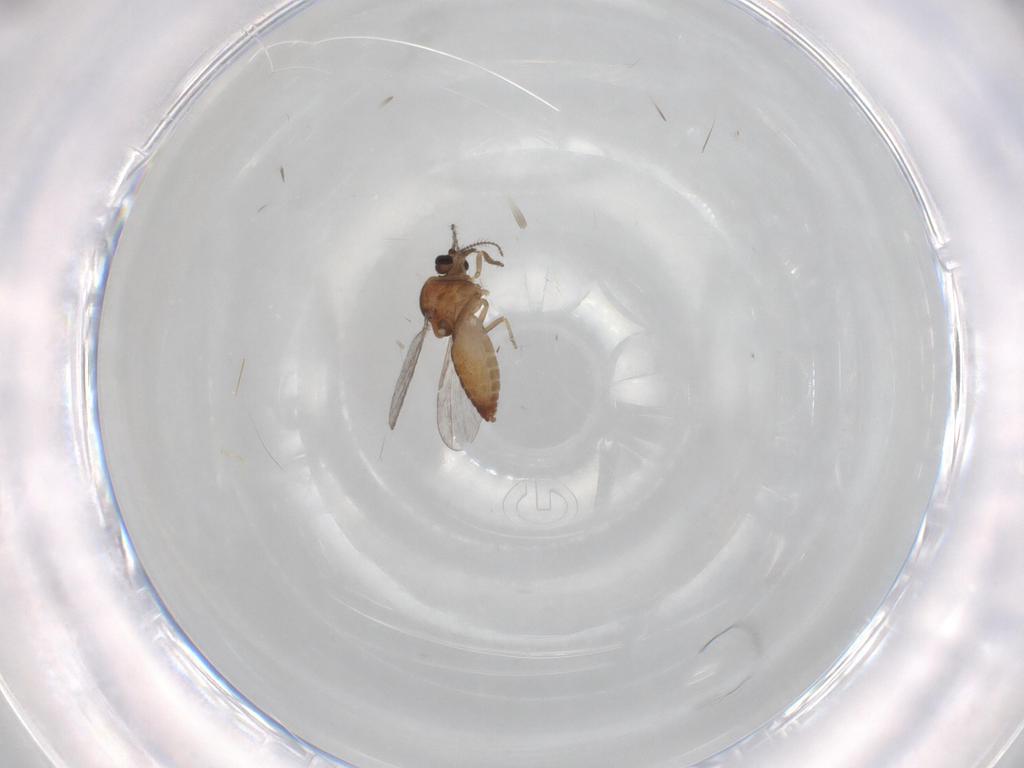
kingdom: Animalia
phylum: Arthropoda
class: Insecta
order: Diptera
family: Ceratopogonidae
